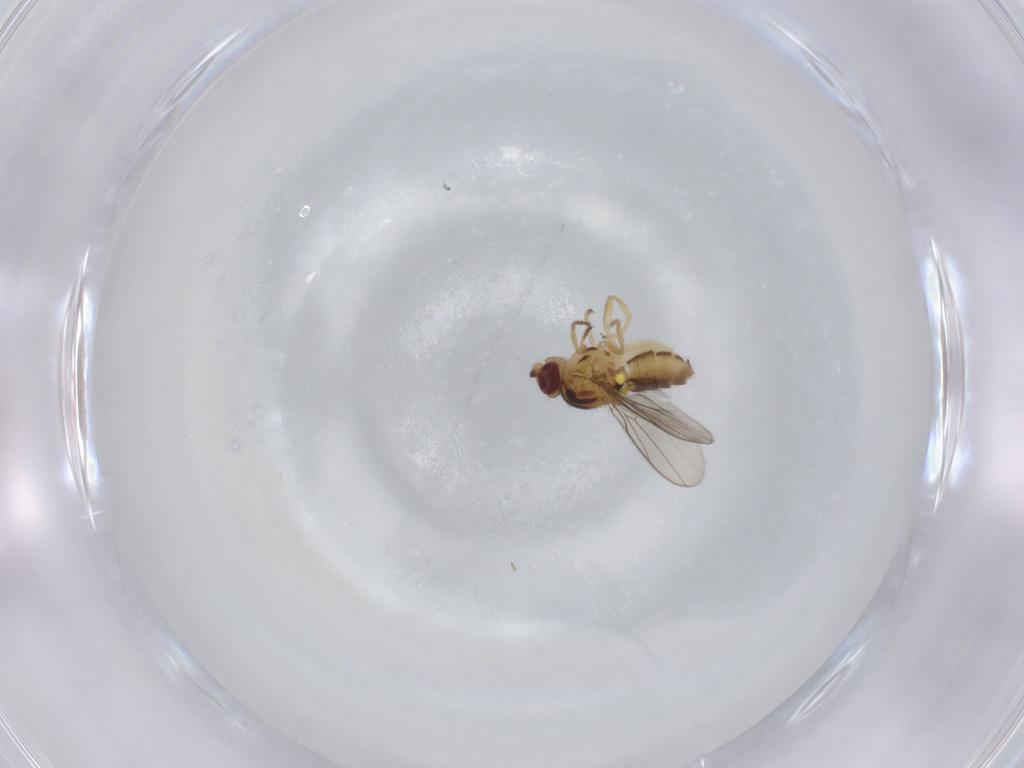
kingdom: Animalia
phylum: Arthropoda
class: Insecta
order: Diptera
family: Chloropidae
